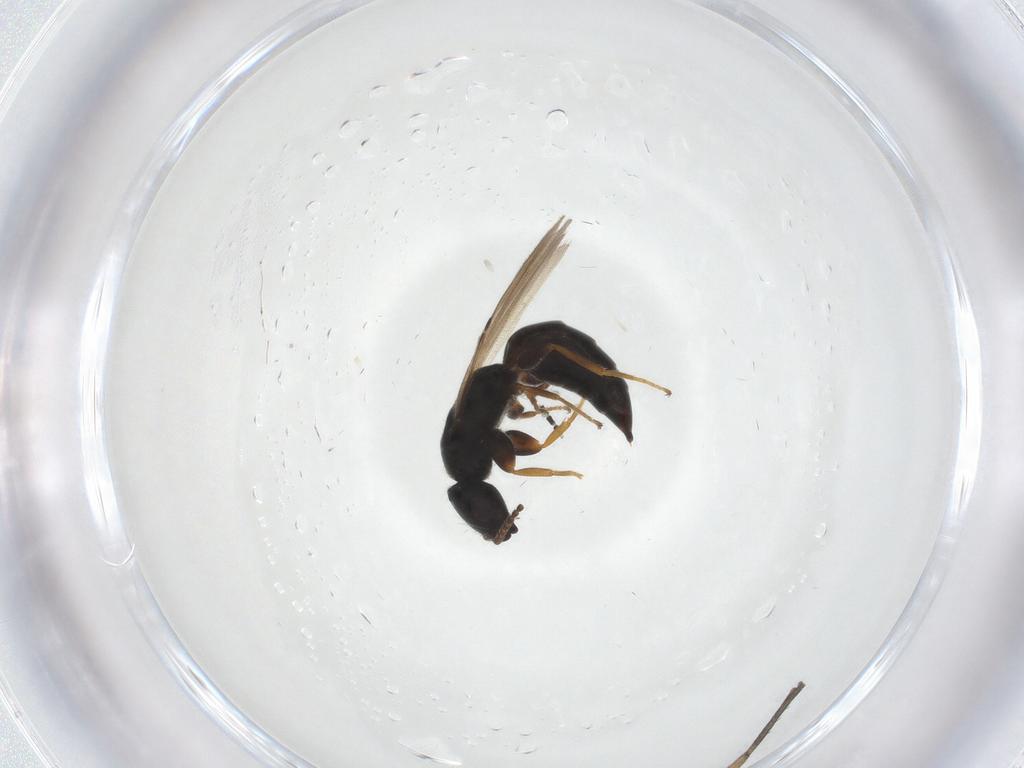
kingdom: Animalia
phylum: Arthropoda
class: Insecta
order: Hymenoptera
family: Bethylidae
